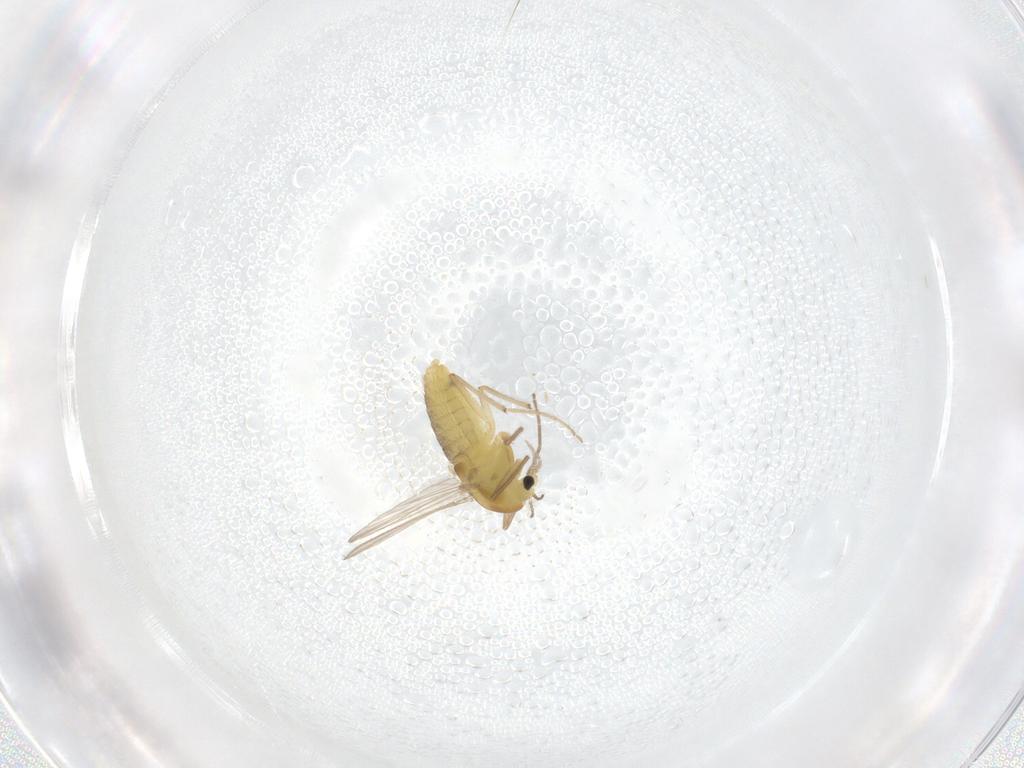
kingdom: Animalia
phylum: Arthropoda
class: Insecta
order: Diptera
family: Chironomidae
